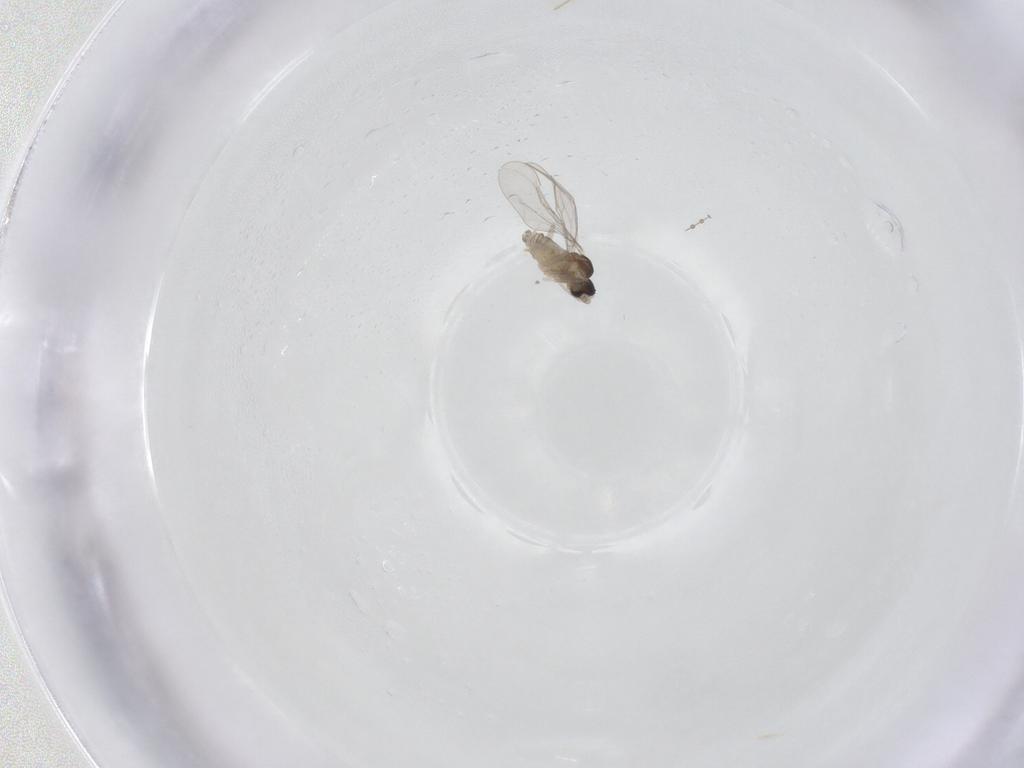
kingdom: Animalia
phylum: Arthropoda
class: Insecta
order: Diptera
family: Cecidomyiidae
